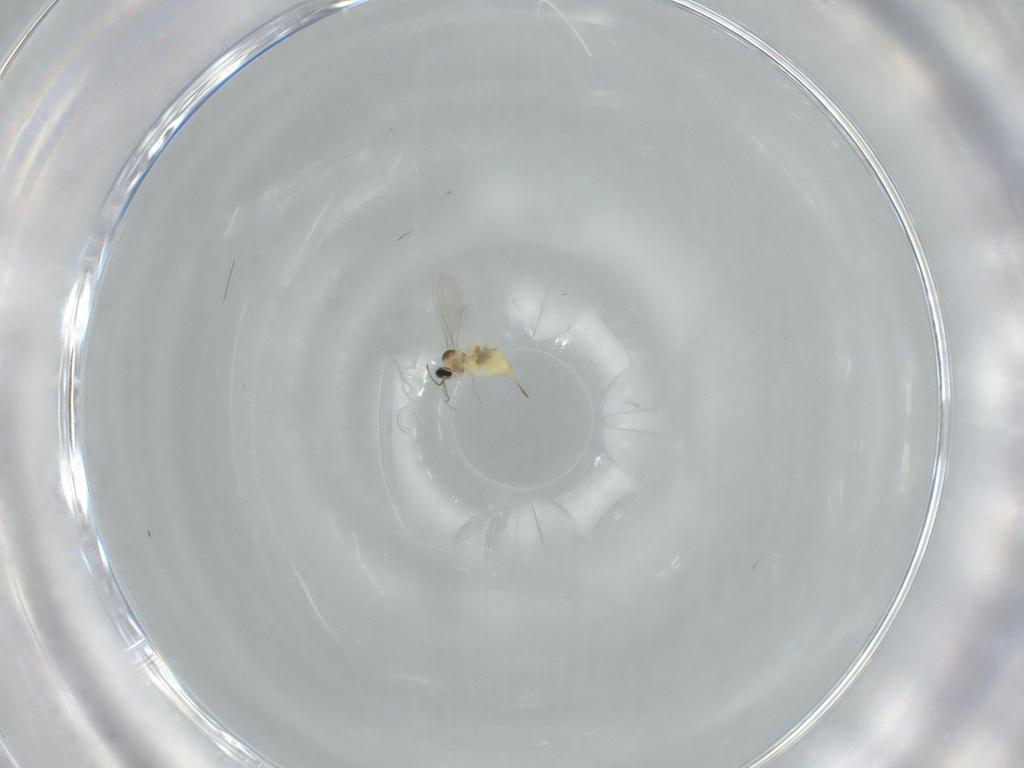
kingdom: Animalia
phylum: Arthropoda
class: Insecta
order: Diptera
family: Cecidomyiidae
